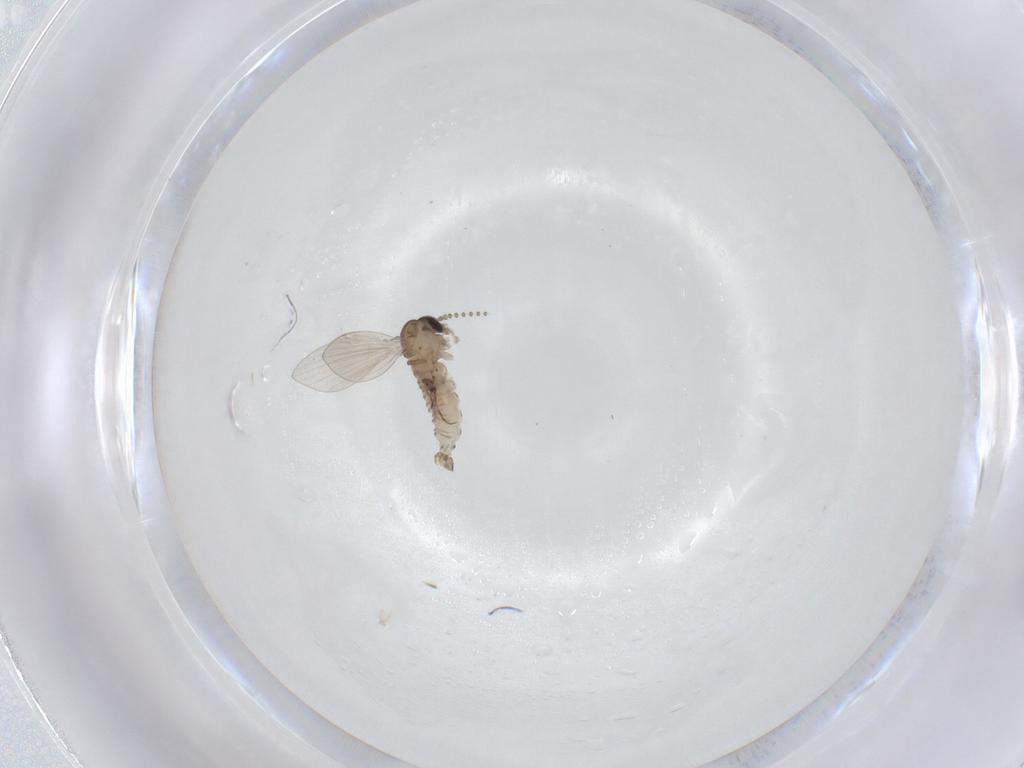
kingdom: Animalia
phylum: Arthropoda
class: Insecta
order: Diptera
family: Psychodidae
